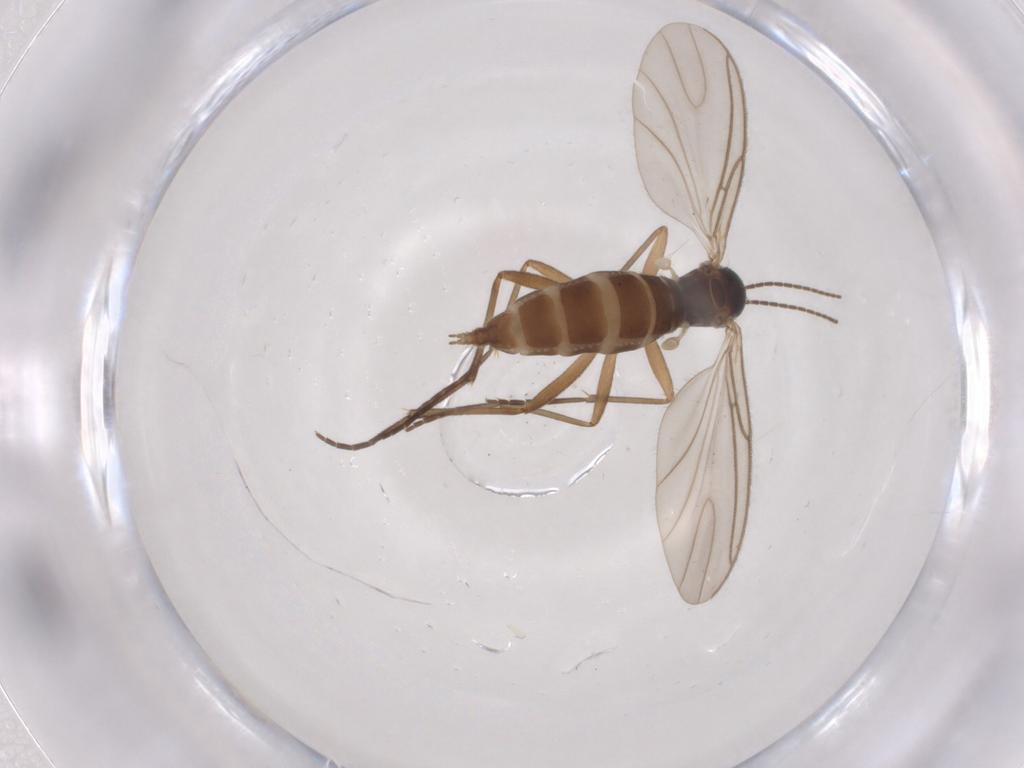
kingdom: Animalia
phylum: Arthropoda
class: Insecta
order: Diptera
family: Sciaridae
